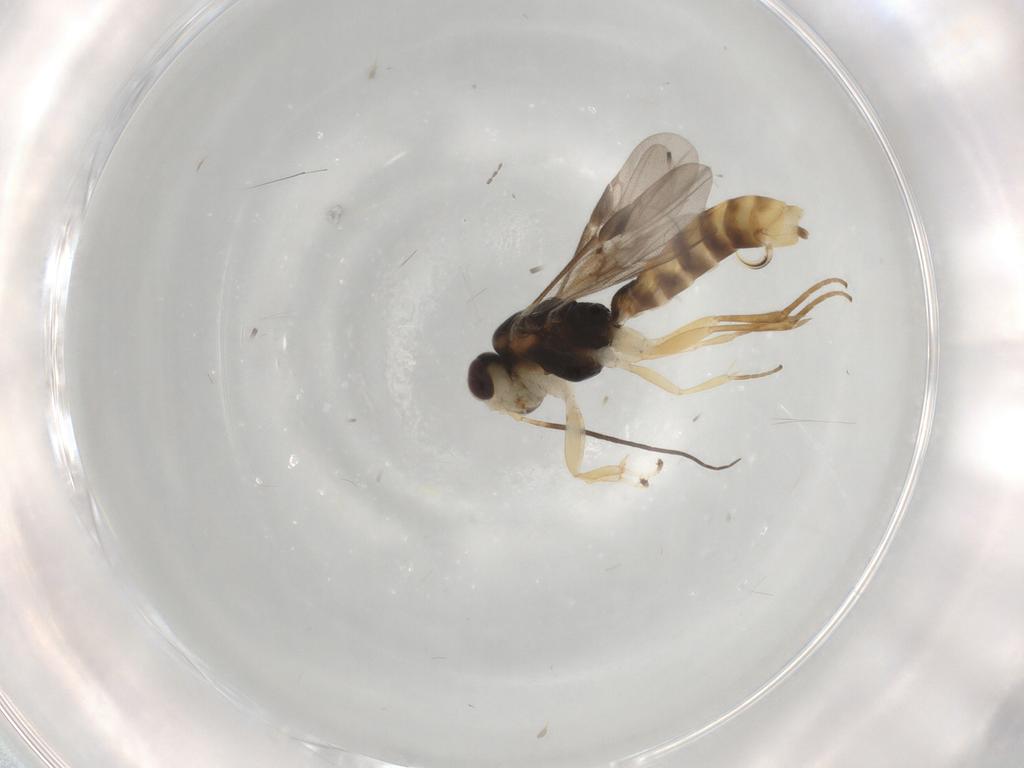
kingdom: Animalia
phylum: Arthropoda
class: Insecta
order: Hymenoptera
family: Braconidae
